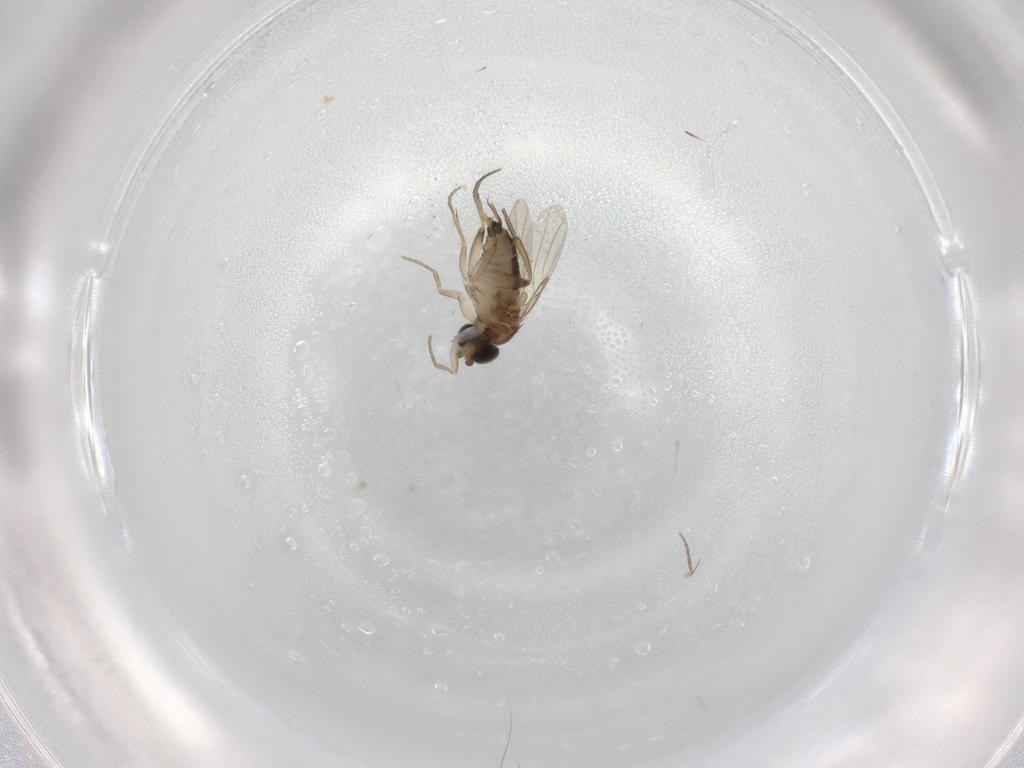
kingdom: Animalia
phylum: Arthropoda
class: Insecta
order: Diptera
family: Phoridae
